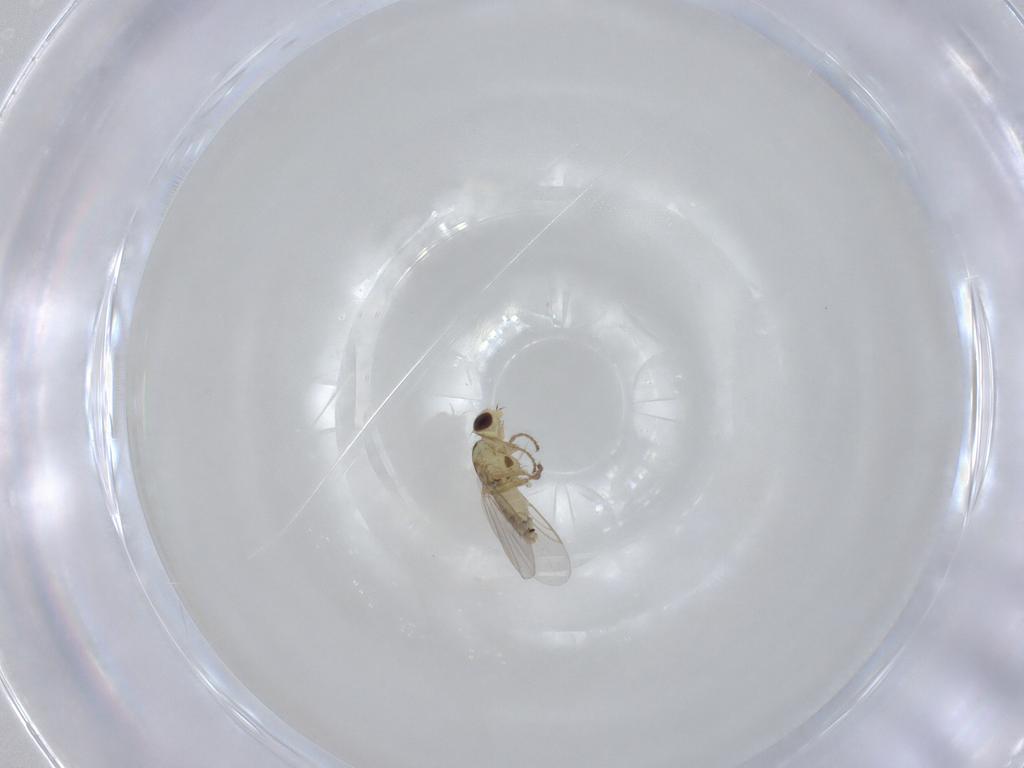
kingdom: Animalia
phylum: Arthropoda
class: Insecta
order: Diptera
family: Agromyzidae
